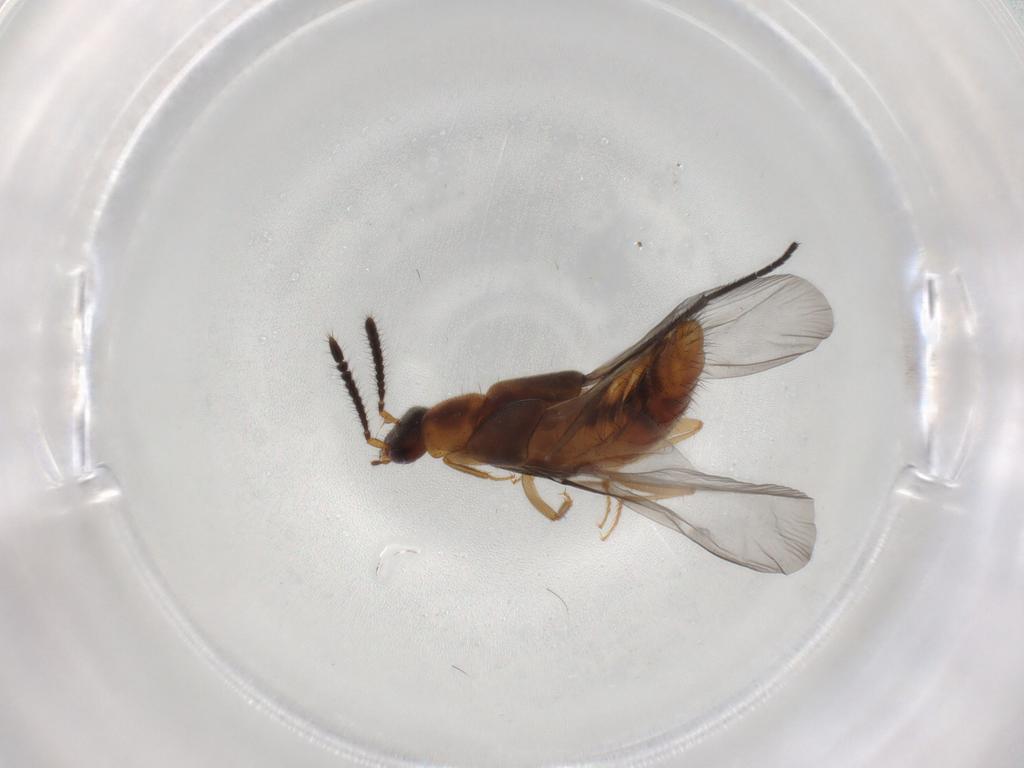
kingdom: Animalia
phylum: Arthropoda
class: Insecta
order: Coleoptera
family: Staphylinidae
